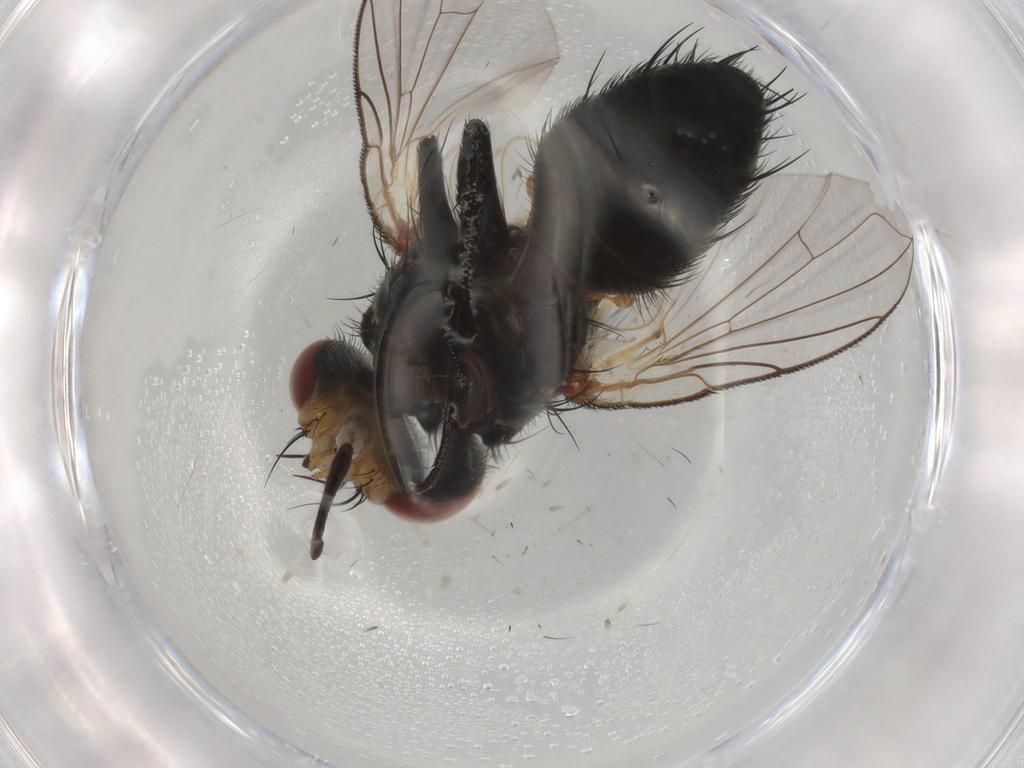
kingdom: Animalia
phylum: Arthropoda
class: Insecta
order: Diptera
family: Tachinidae
